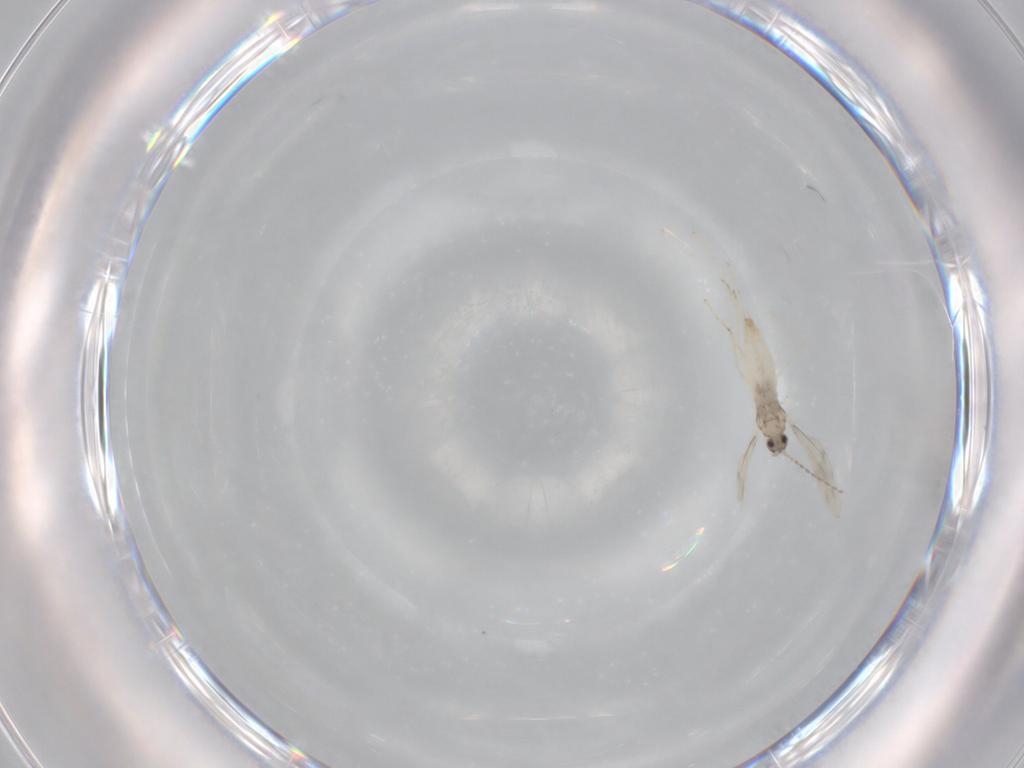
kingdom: Animalia
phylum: Arthropoda
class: Insecta
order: Diptera
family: Cecidomyiidae
